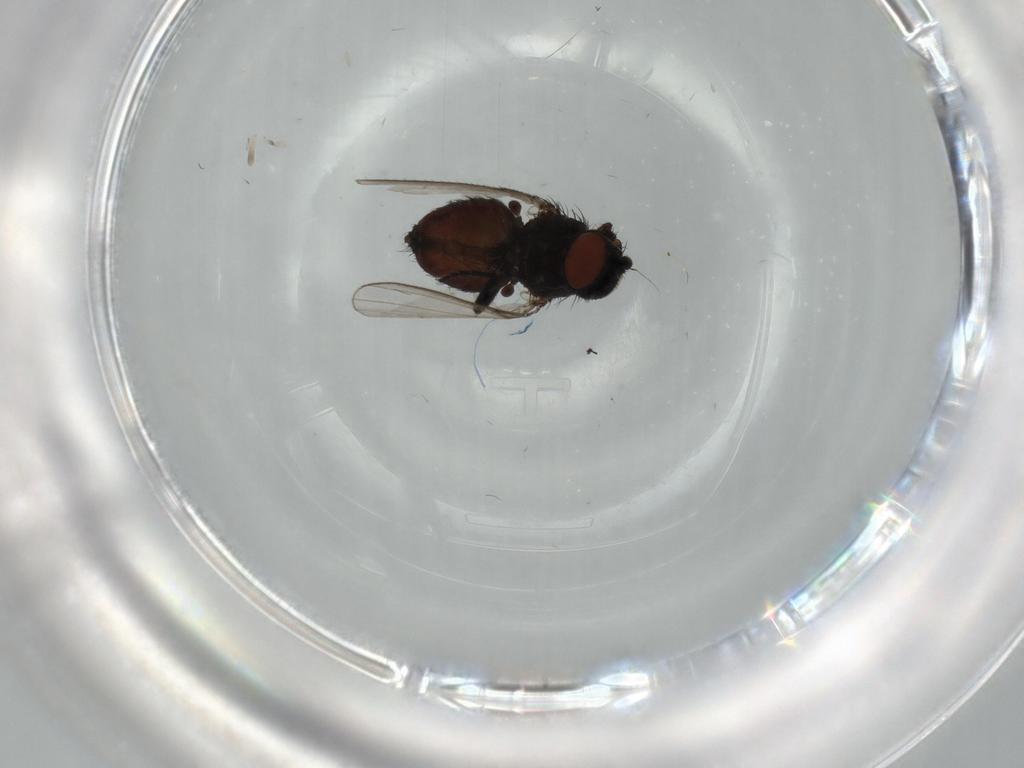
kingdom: Animalia
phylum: Arthropoda
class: Insecta
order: Diptera
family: Milichiidae
